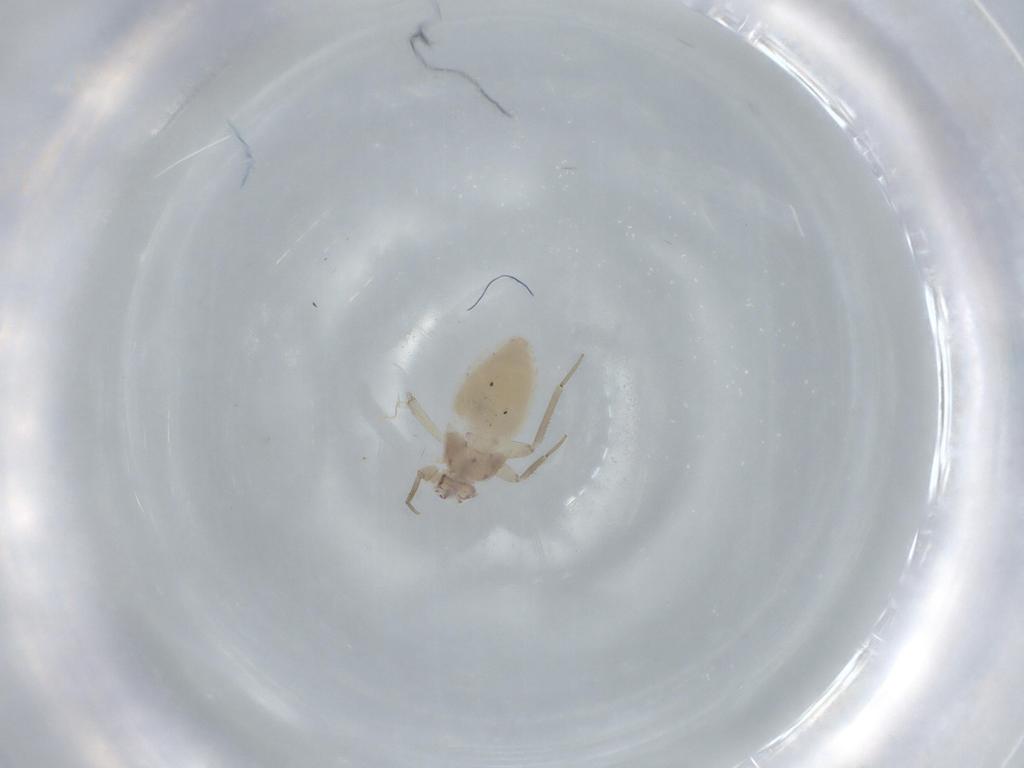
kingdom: Animalia
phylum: Arthropoda
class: Insecta
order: Psocodea
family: Lepidopsocidae
